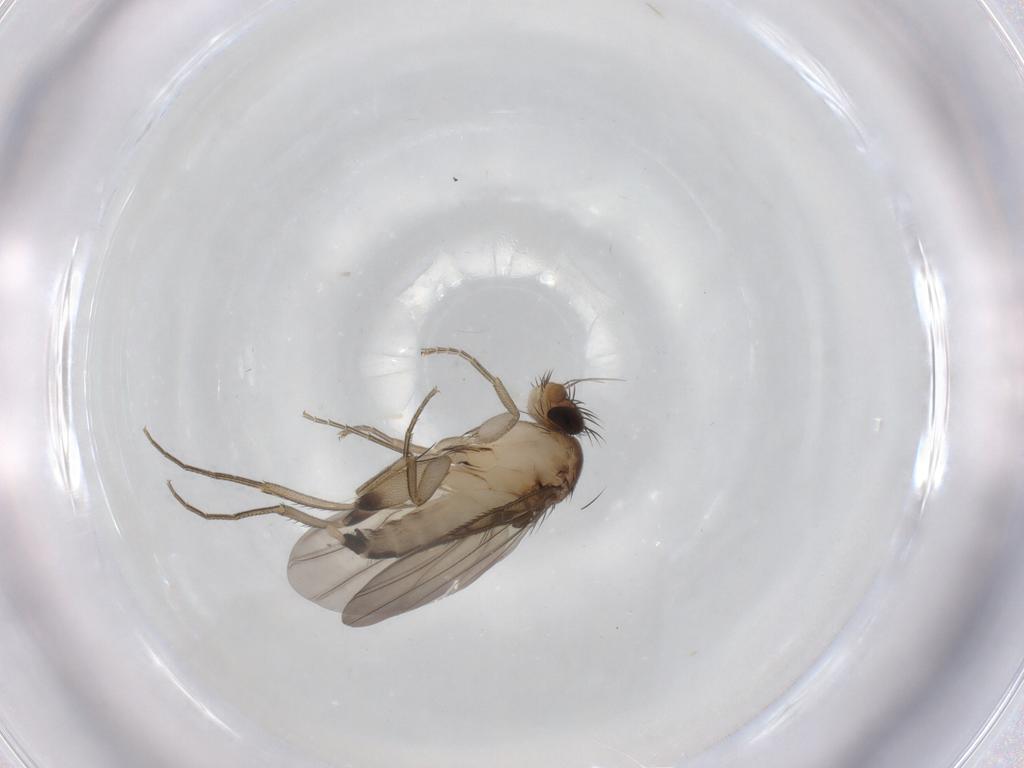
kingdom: Animalia
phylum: Arthropoda
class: Insecta
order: Diptera
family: Phoridae
